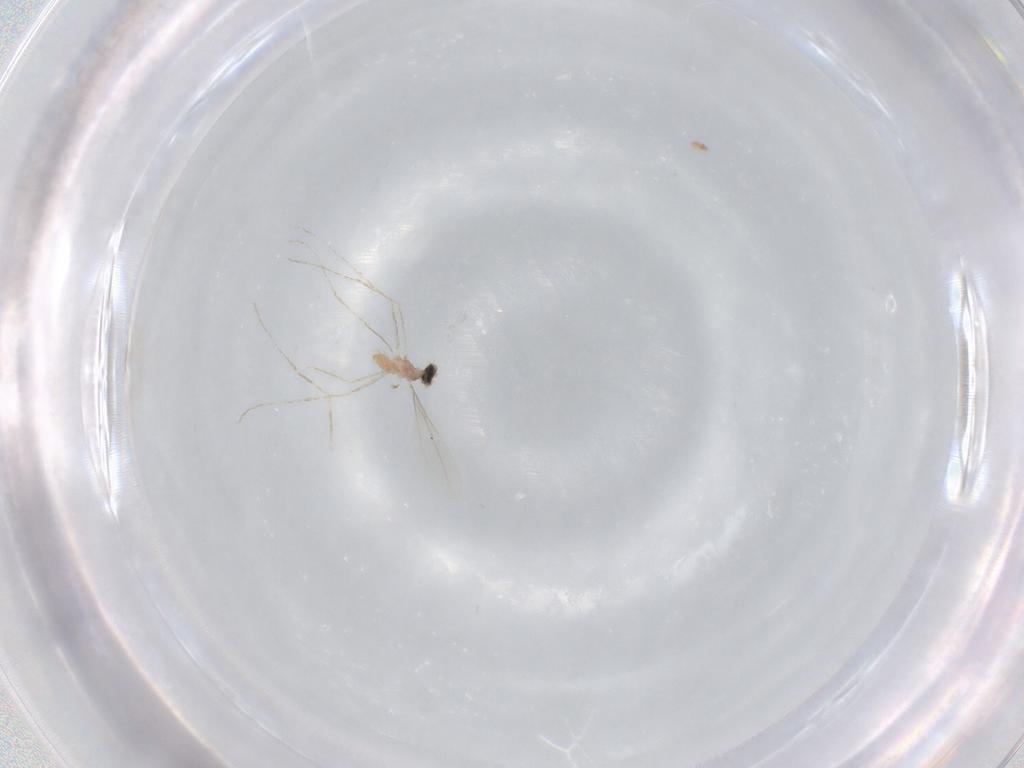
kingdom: Animalia
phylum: Arthropoda
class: Insecta
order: Diptera
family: Cecidomyiidae
